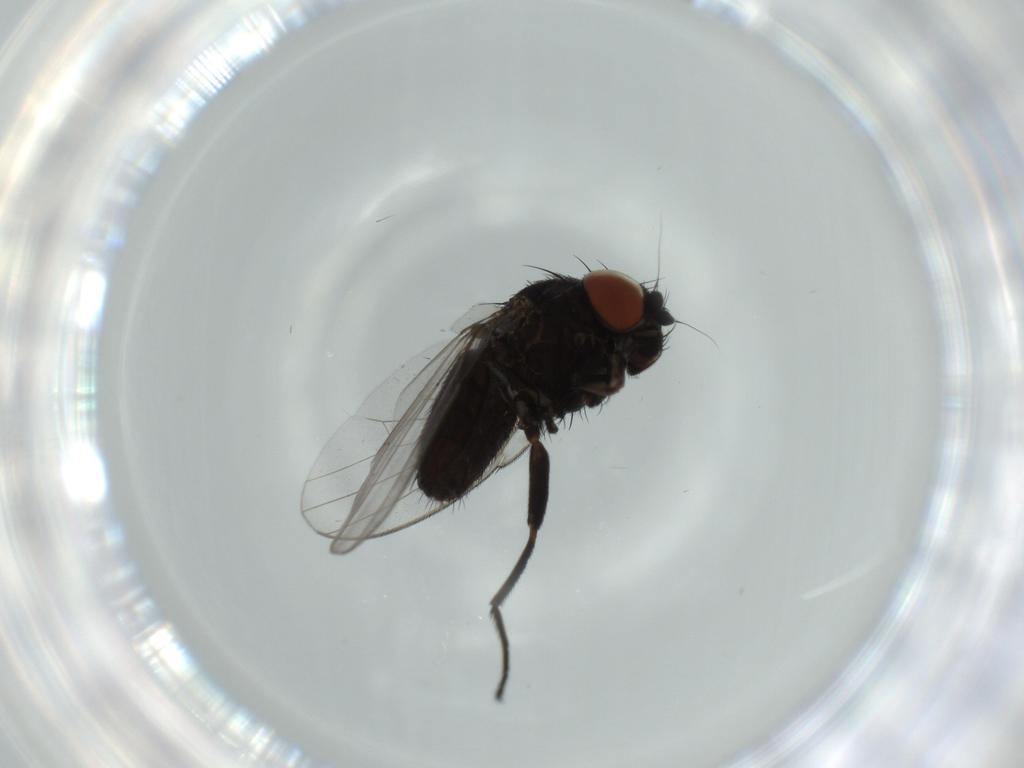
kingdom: Animalia
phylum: Arthropoda
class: Insecta
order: Diptera
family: Milichiidae
